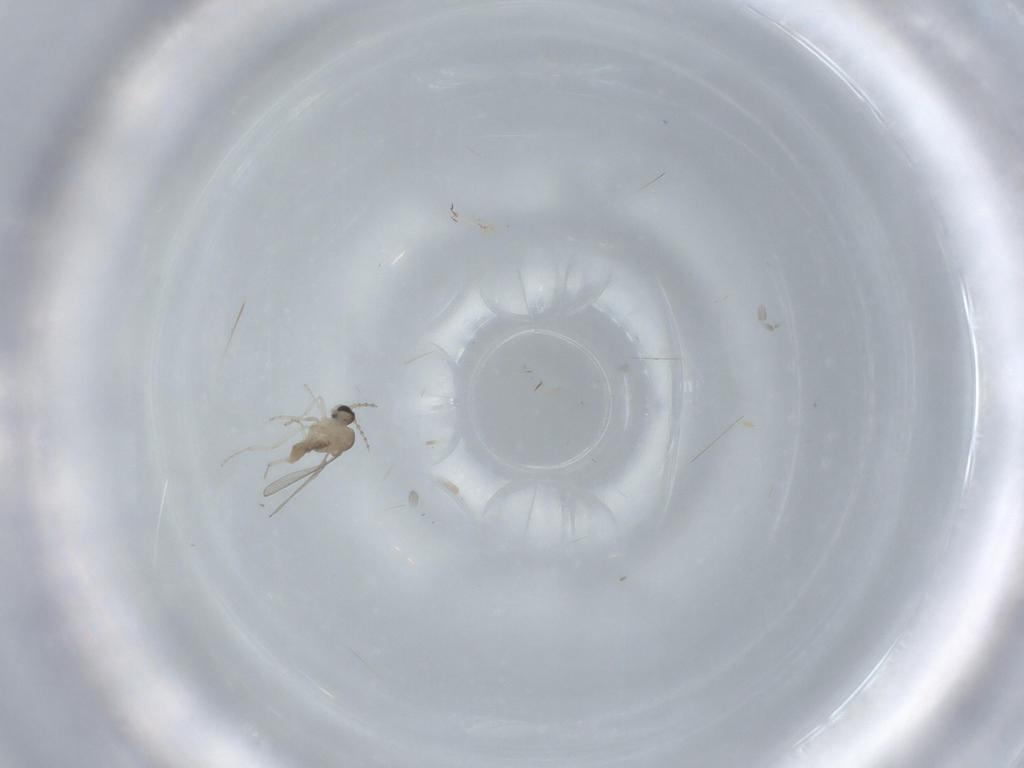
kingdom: Animalia
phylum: Arthropoda
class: Insecta
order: Diptera
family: Cecidomyiidae
